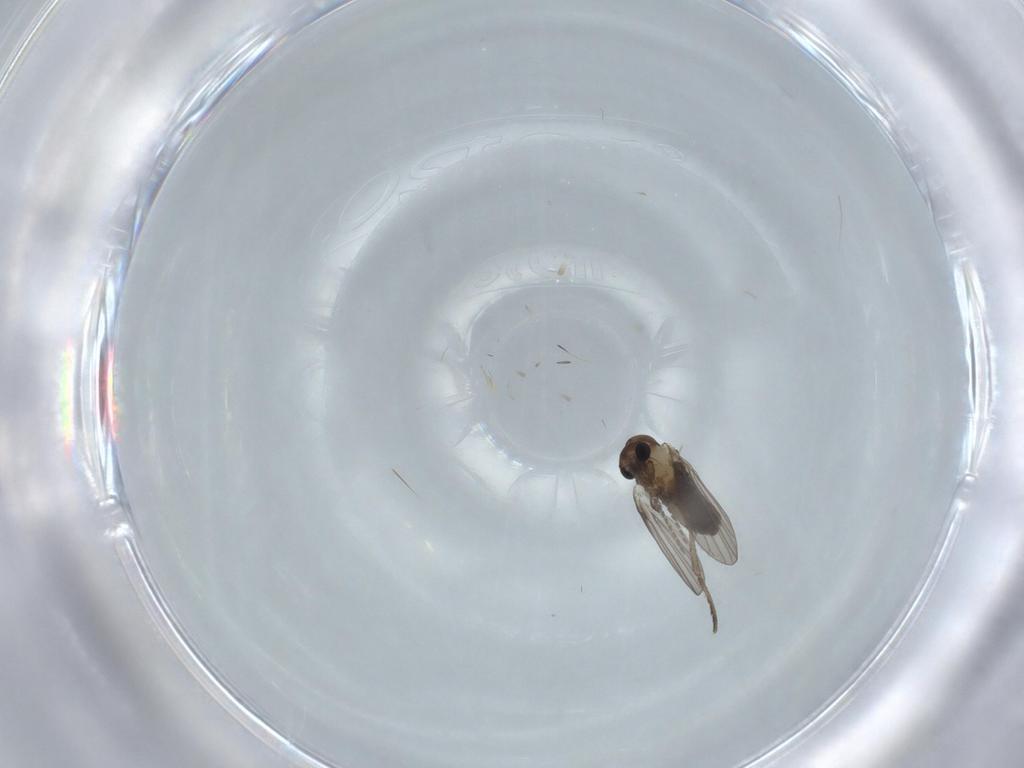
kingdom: Animalia
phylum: Arthropoda
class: Insecta
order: Diptera
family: Psychodidae
